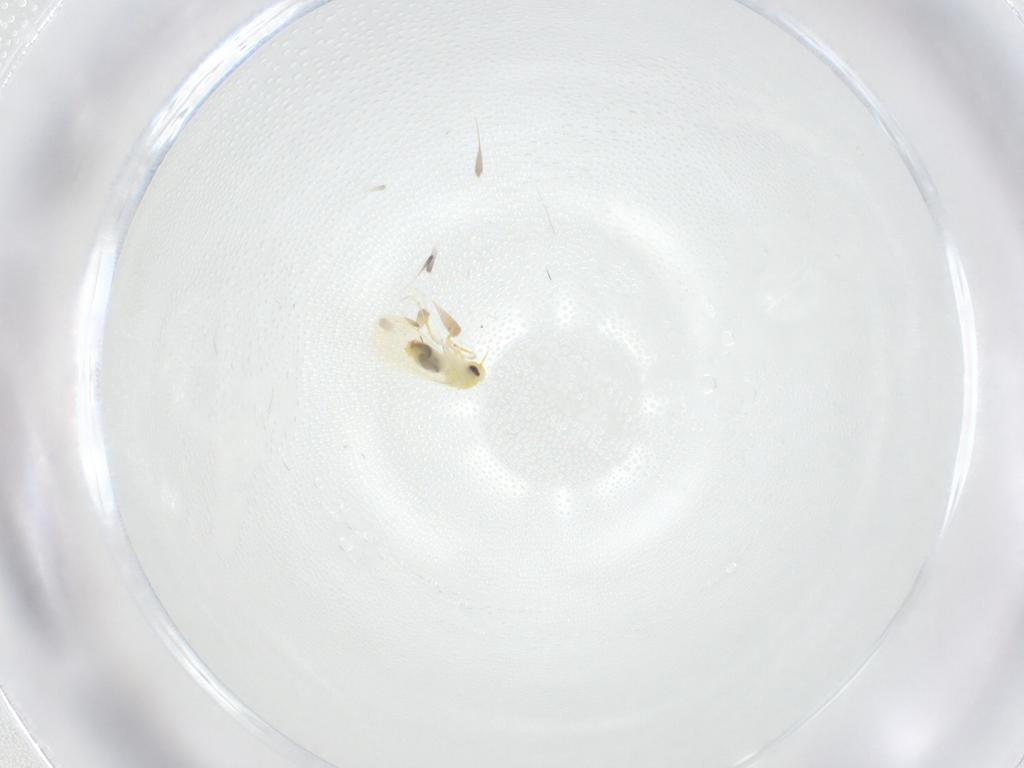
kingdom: Animalia
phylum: Arthropoda
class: Insecta
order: Hemiptera
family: Aleyrodidae
